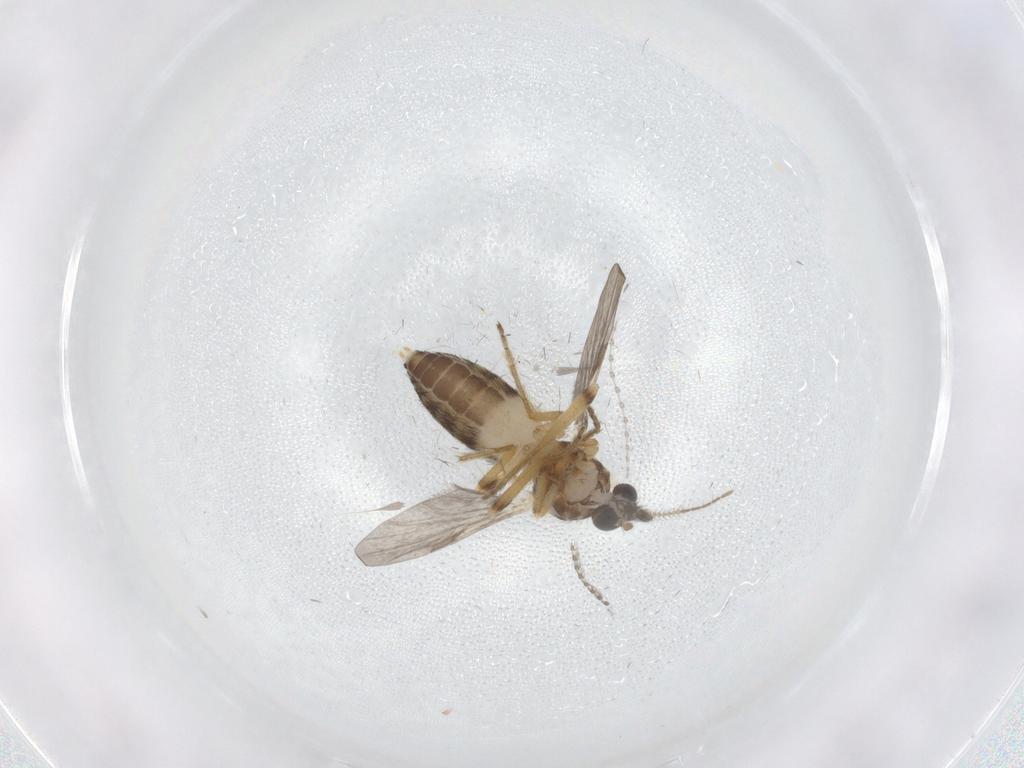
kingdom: Animalia
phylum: Arthropoda
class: Insecta
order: Diptera
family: Ceratopogonidae
